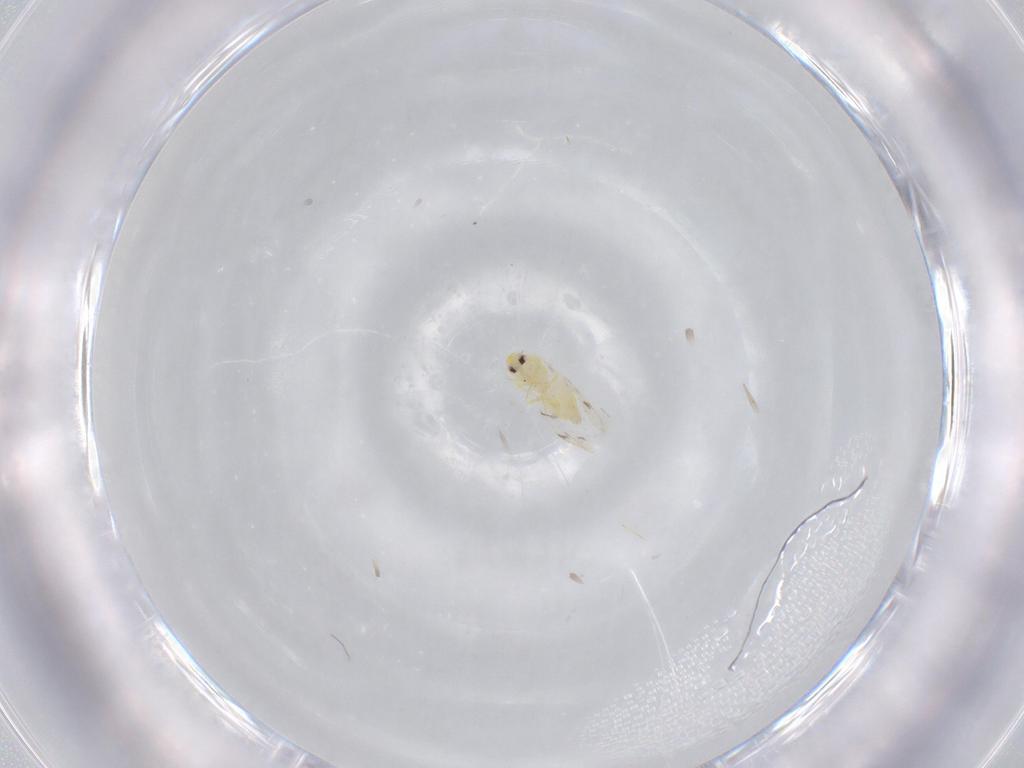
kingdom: Animalia
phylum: Arthropoda
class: Insecta
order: Hemiptera
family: Aleyrodidae
